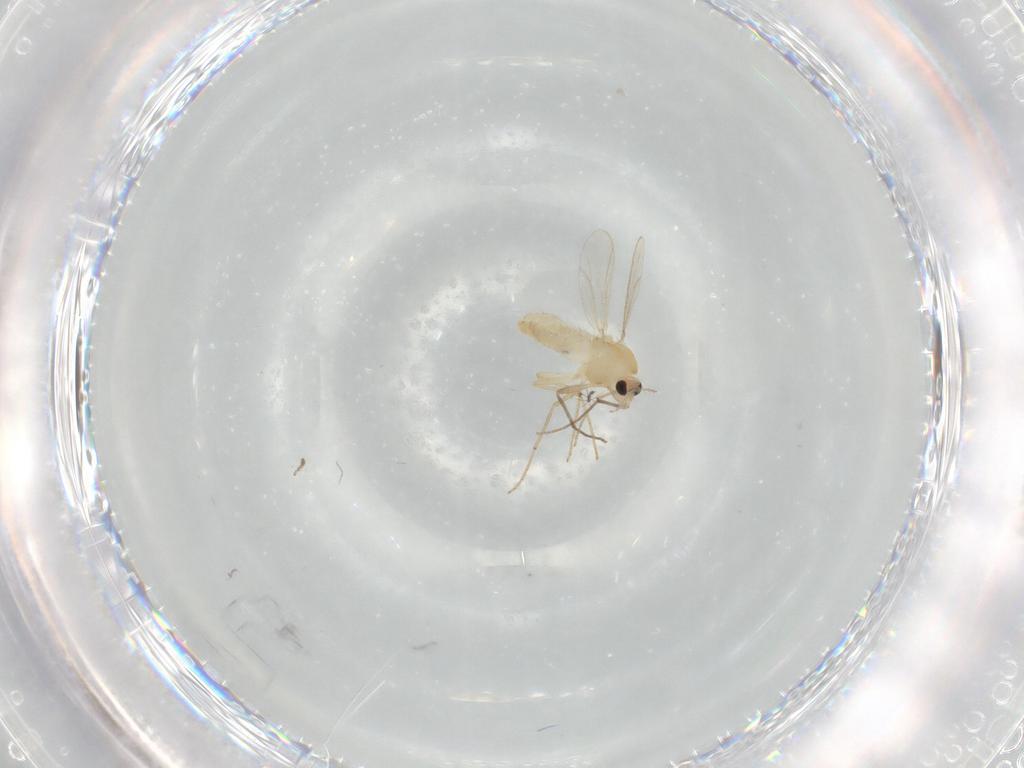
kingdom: Animalia
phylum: Arthropoda
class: Insecta
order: Diptera
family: Chironomidae
